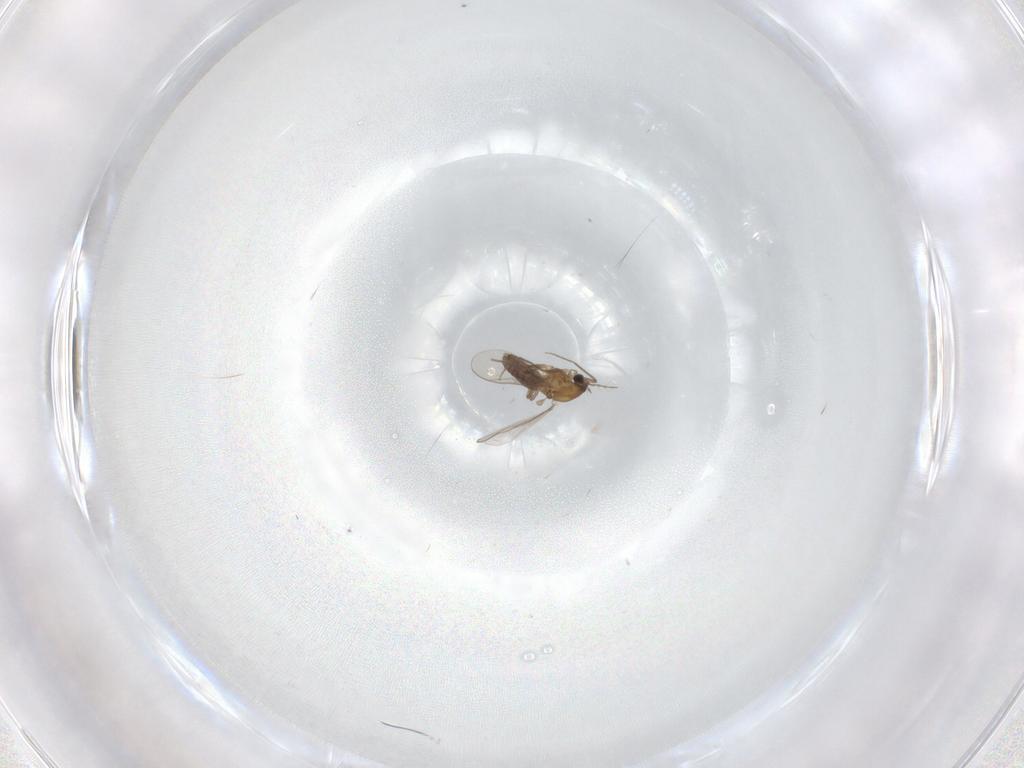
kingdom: Animalia
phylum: Arthropoda
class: Insecta
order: Diptera
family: Chironomidae
